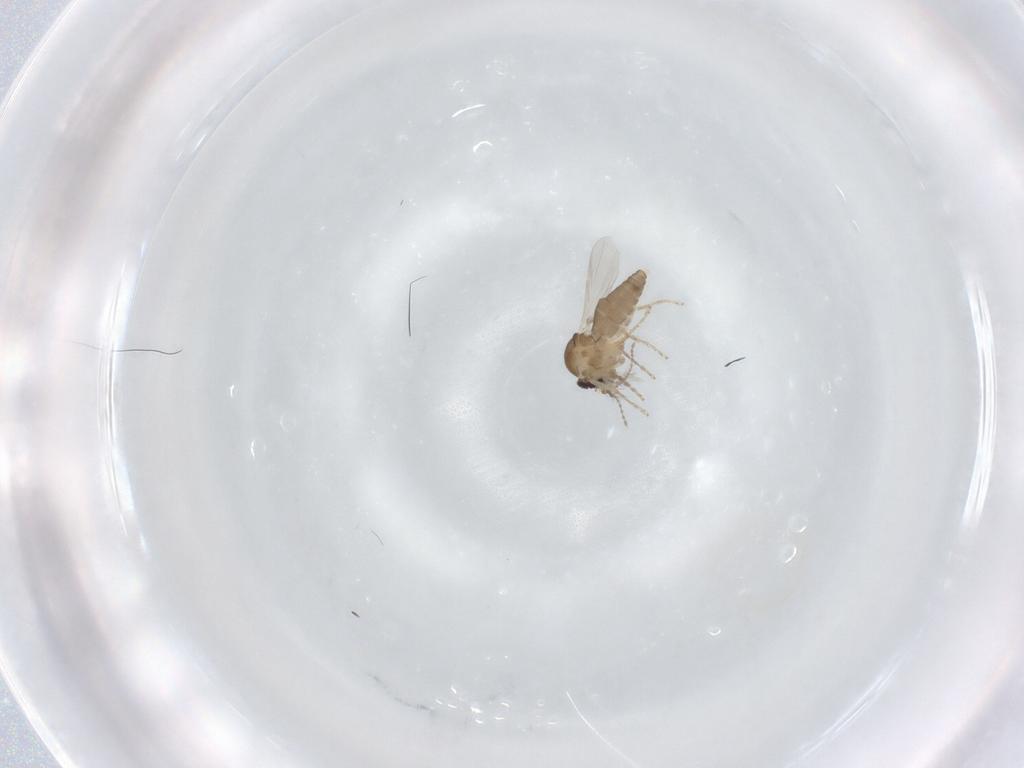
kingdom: Animalia
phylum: Arthropoda
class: Insecta
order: Diptera
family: Ceratopogonidae
